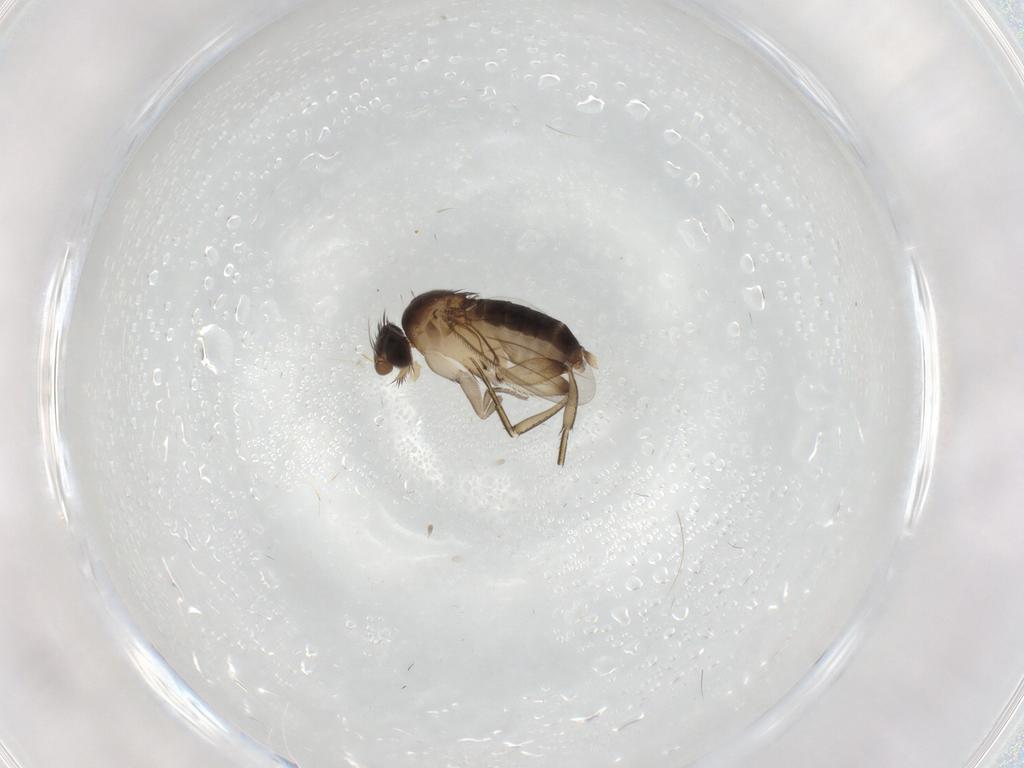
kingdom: Animalia
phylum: Arthropoda
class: Insecta
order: Diptera
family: Phoridae
